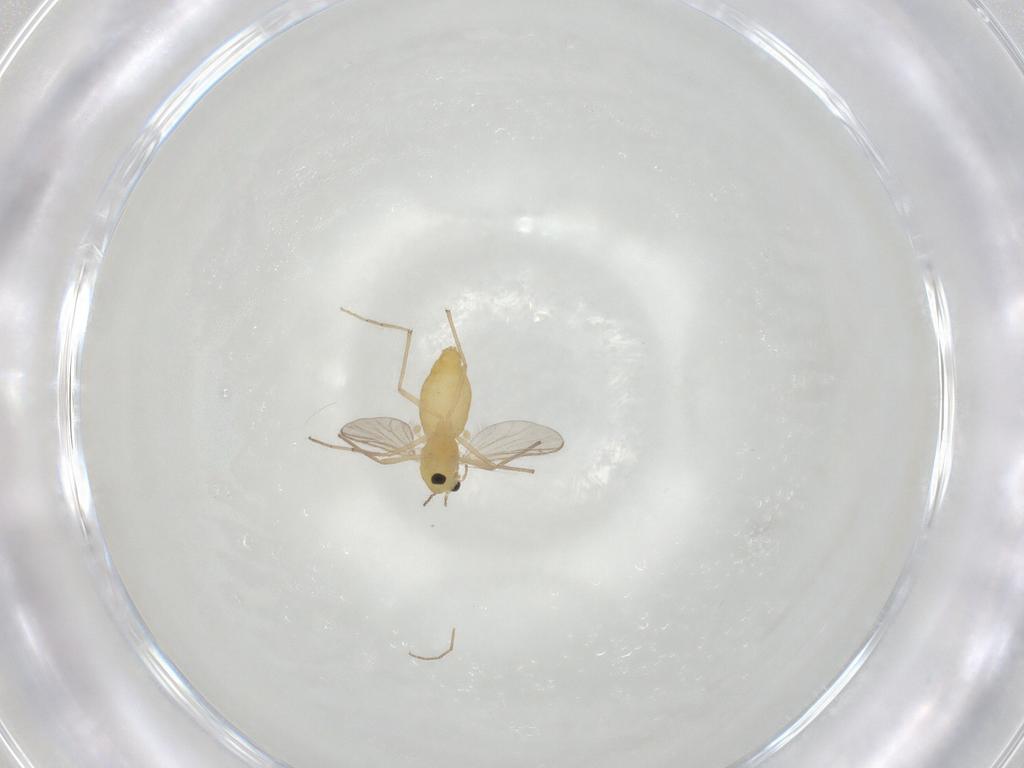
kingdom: Animalia
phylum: Arthropoda
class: Insecta
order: Diptera
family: Chironomidae
